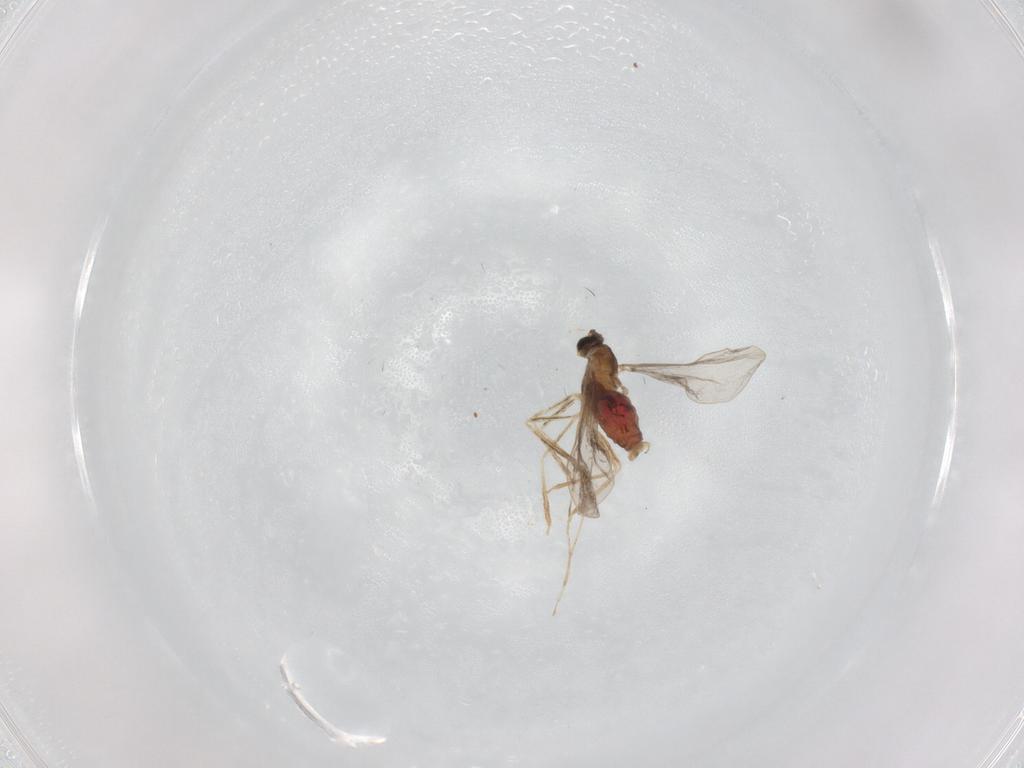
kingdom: Animalia
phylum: Arthropoda
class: Insecta
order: Diptera
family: Cecidomyiidae
